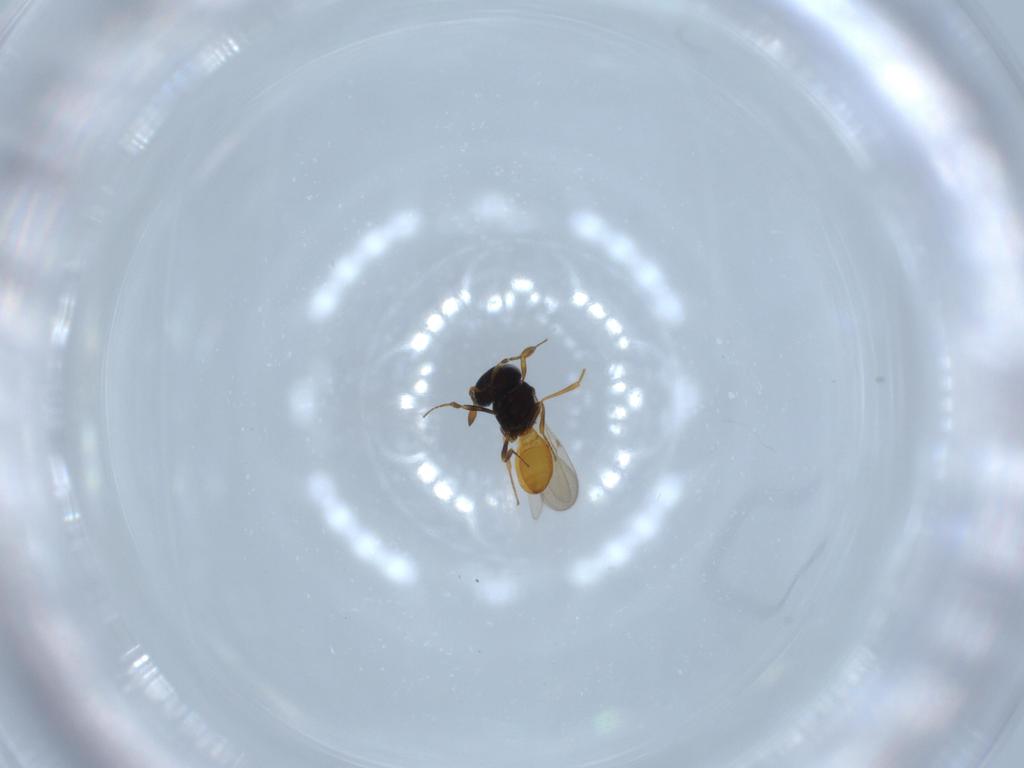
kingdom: Animalia
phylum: Arthropoda
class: Insecta
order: Hymenoptera
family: Scelionidae
